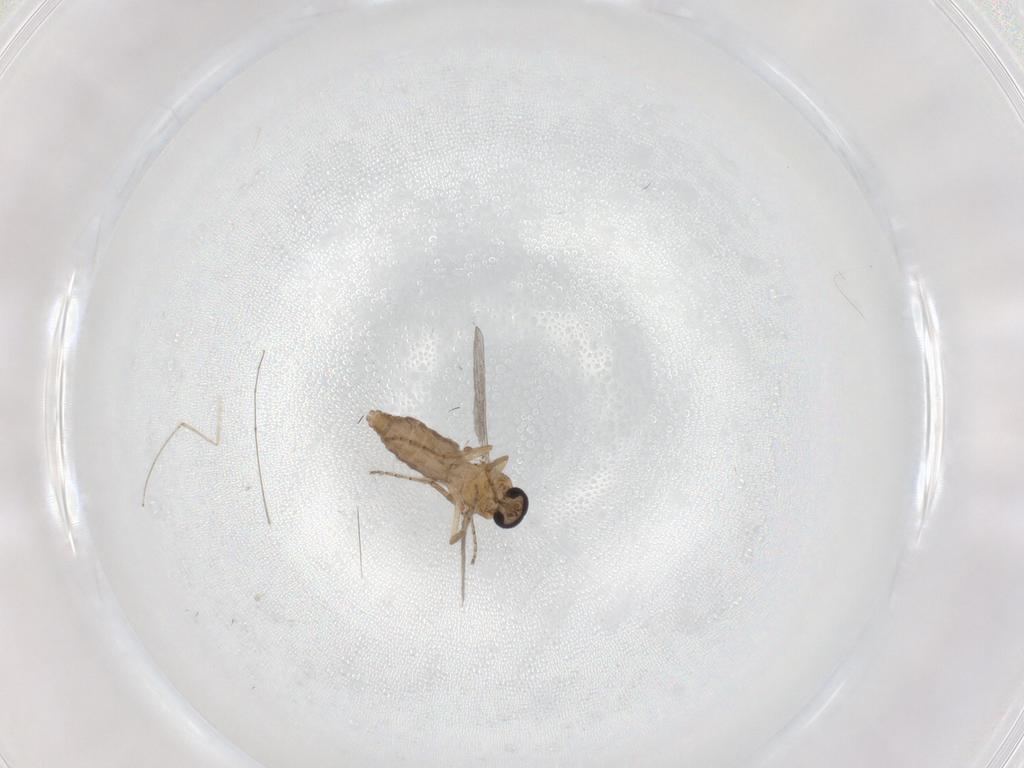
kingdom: Animalia
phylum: Arthropoda
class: Insecta
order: Diptera
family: Ceratopogonidae
